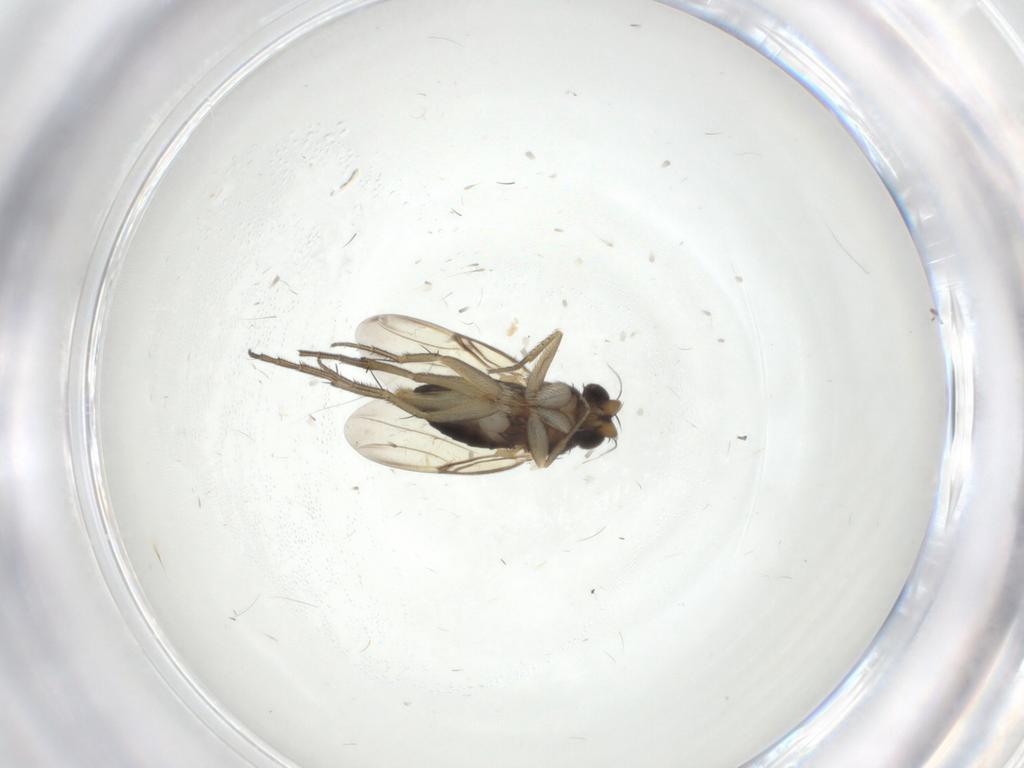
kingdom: Animalia
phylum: Arthropoda
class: Insecta
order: Diptera
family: Phoridae
